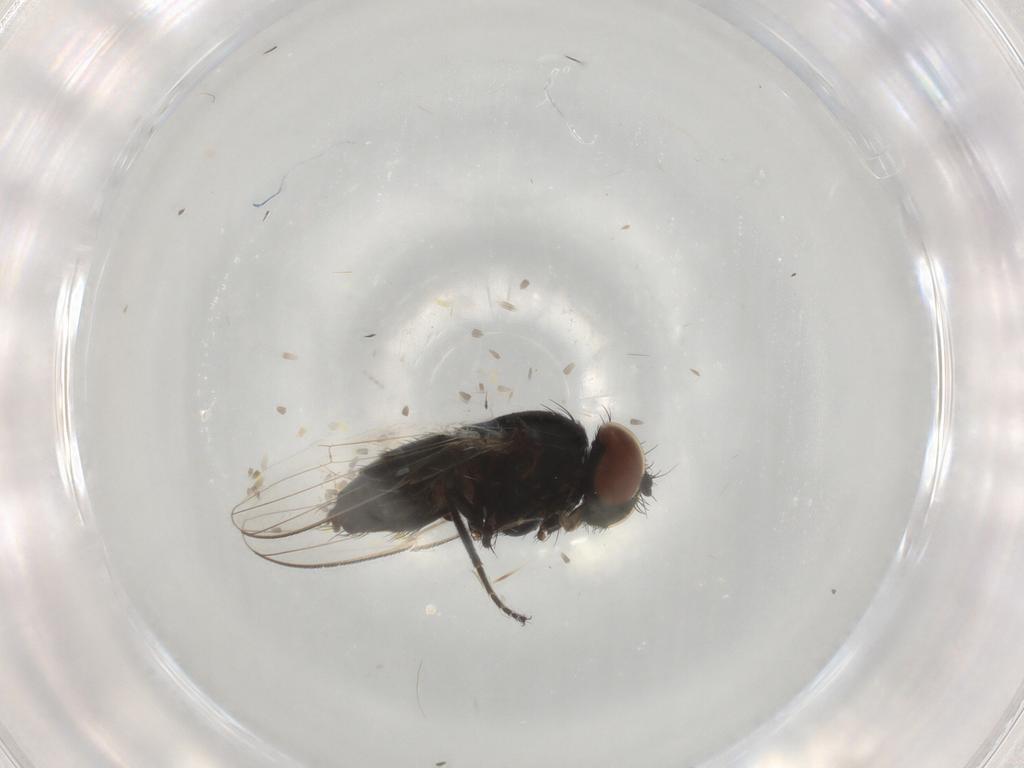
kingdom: Animalia
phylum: Arthropoda
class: Insecta
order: Diptera
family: Milichiidae
